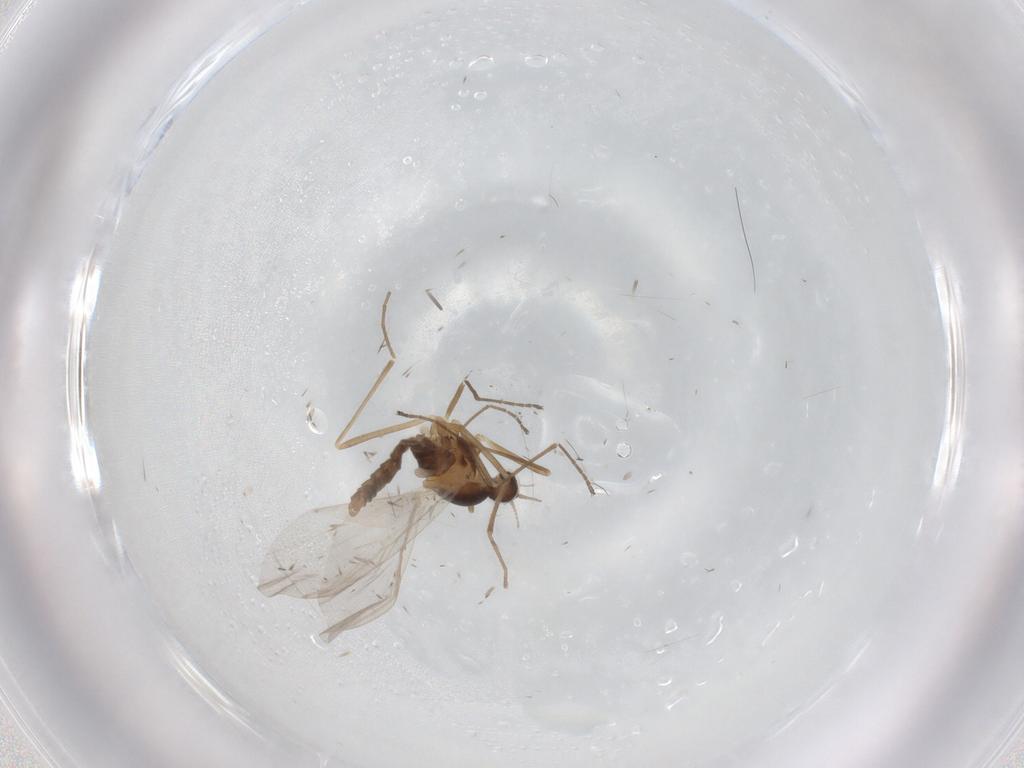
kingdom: Animalia
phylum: Arthropoda
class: Insecta
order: Diptera
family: Cecidomyiidae
